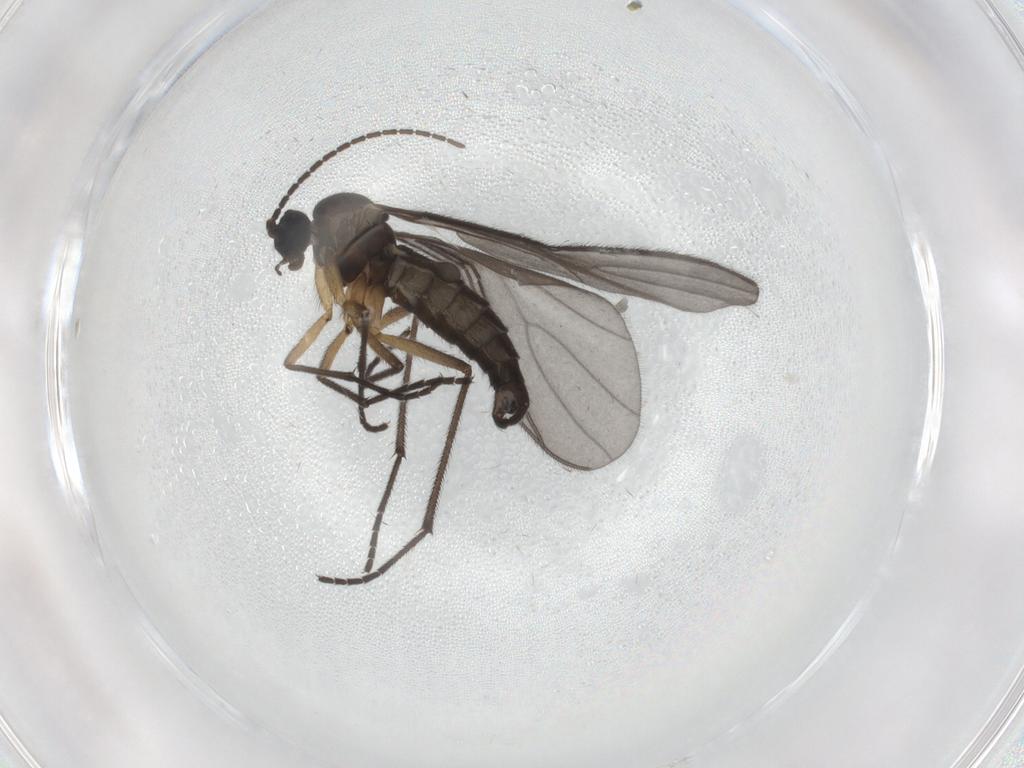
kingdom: Animalia
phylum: Arthropoda
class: Insecta
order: Diptera
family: Sciaridae
